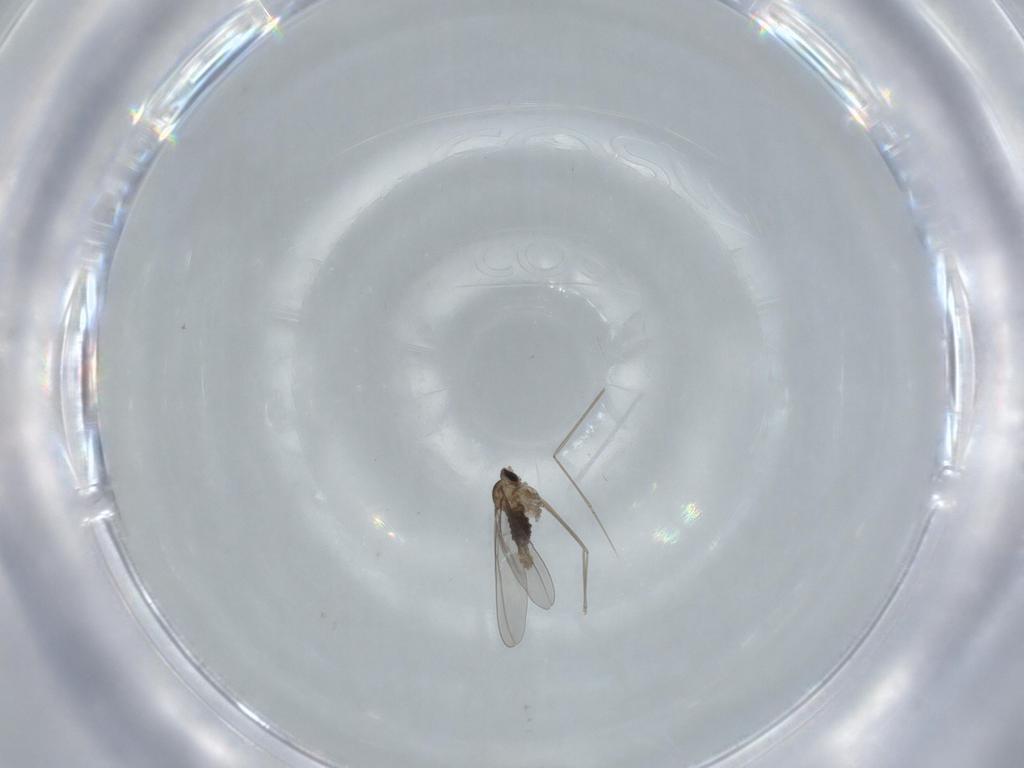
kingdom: Animalia
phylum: Arthropoda
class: Insecta
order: Diptera
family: Cecidomyiidae
